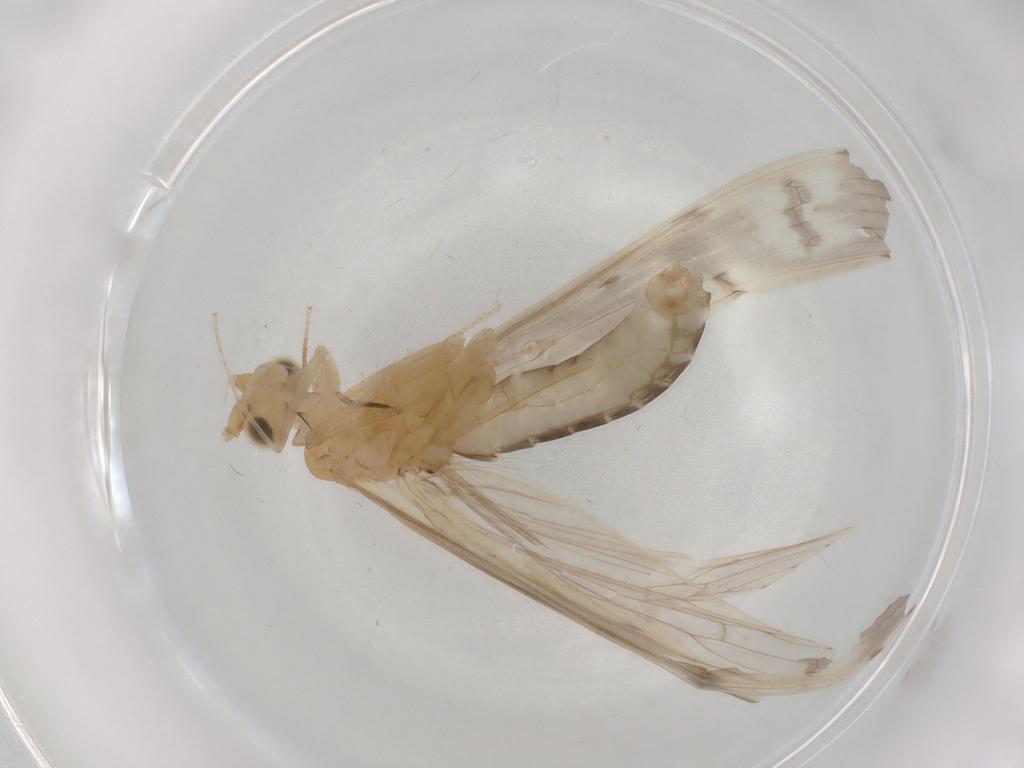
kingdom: Animalia
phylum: Arthropoda
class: Insecta
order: Trichoptera
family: Leptoceridae
